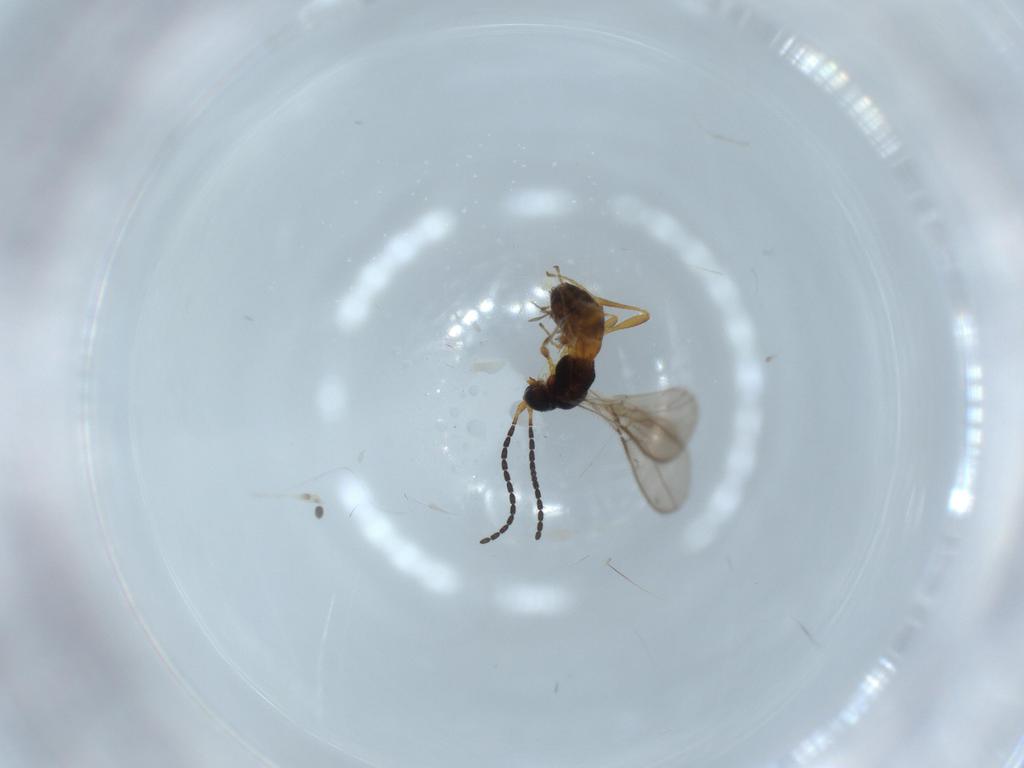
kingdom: Animalia
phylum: Arthropoda
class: Insecta
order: Hymenoptera
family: Braconidae
